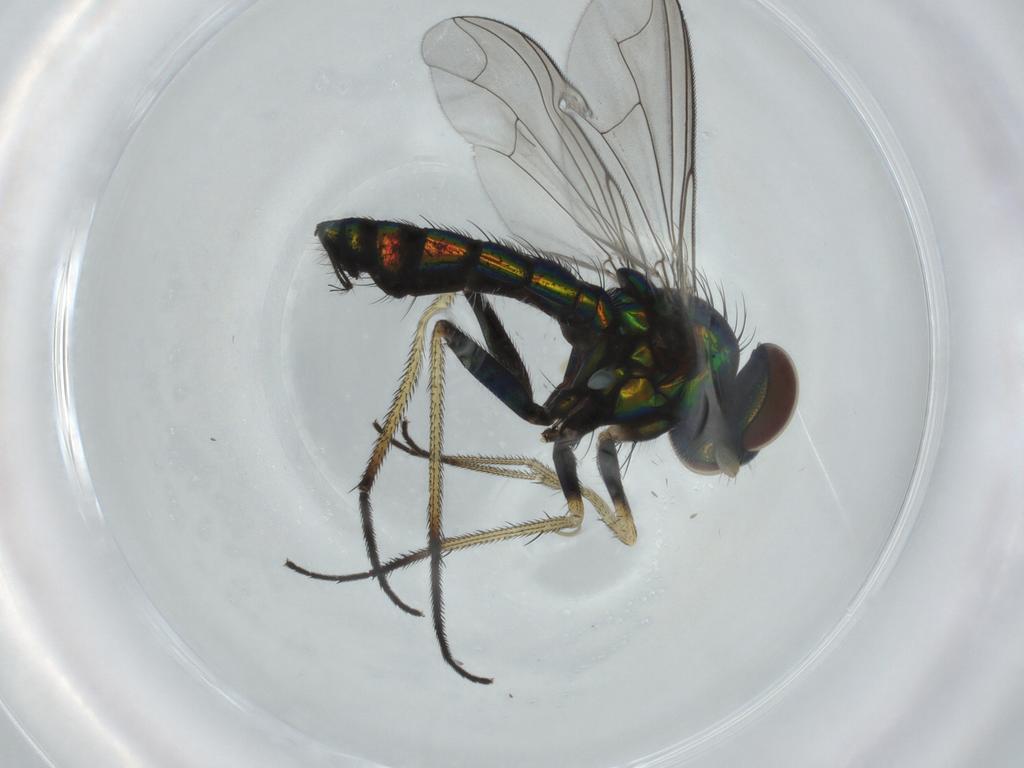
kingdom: Animalia
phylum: Arthropoda
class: Insecta
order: Diptera
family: Dolichopodidae
